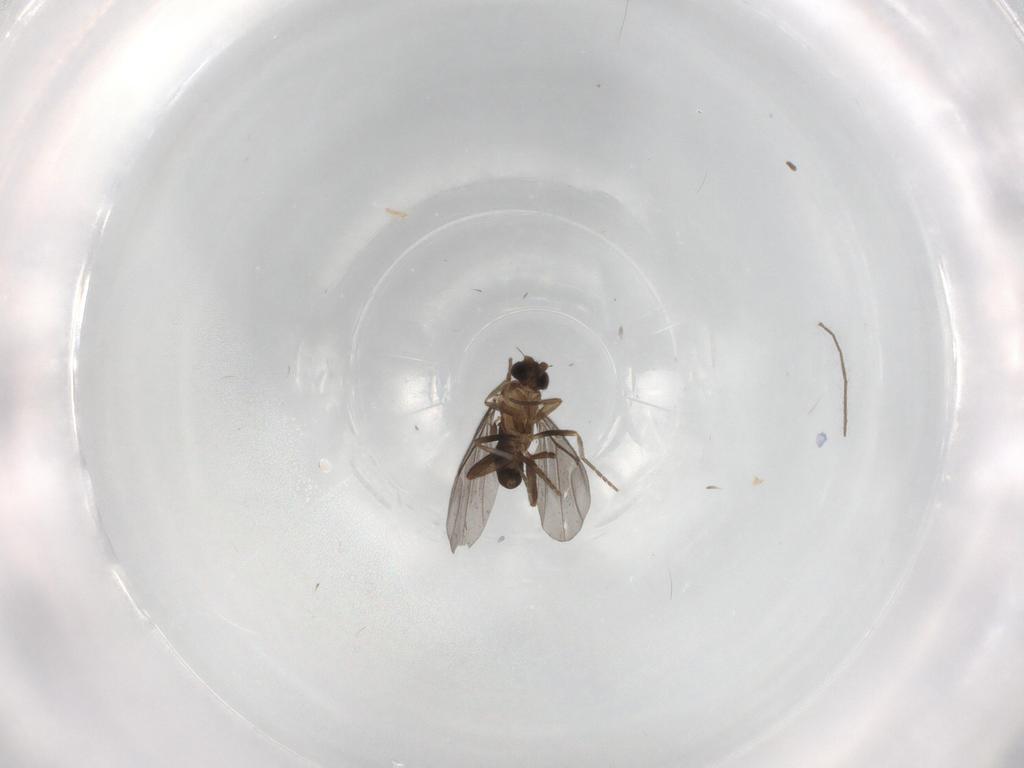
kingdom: Animalia
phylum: Arthropoda
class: Insecta
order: Diptera
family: Phoridae
